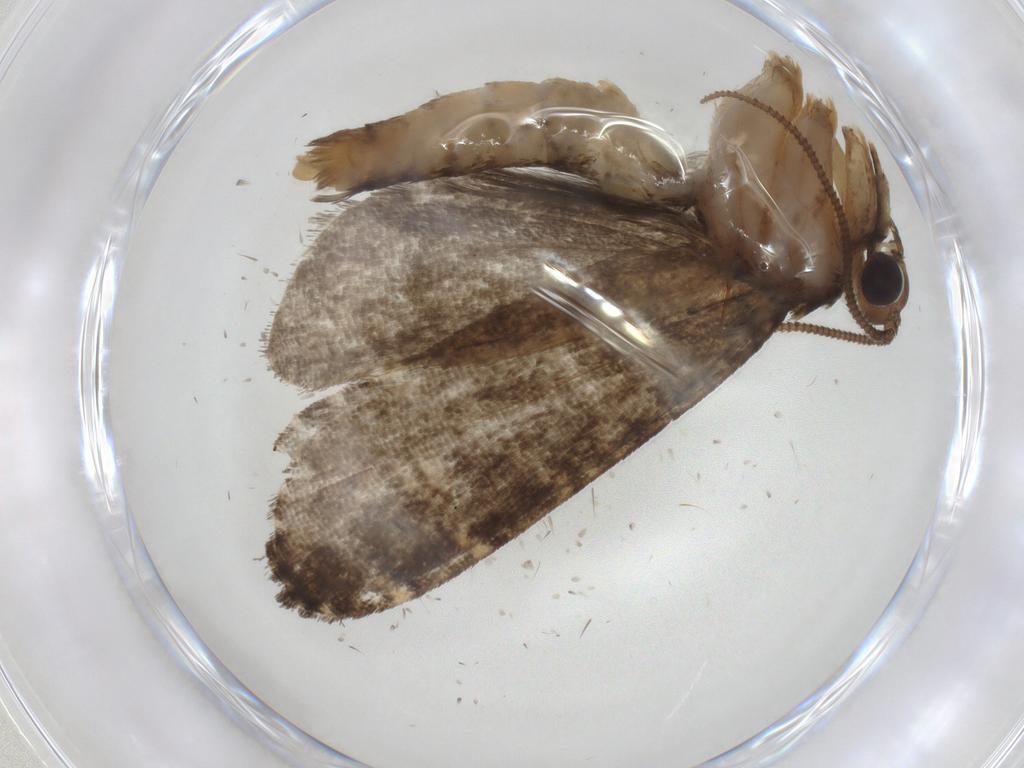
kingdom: Animalia
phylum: Arthropoda
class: Insecta
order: Lepidoptera
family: Tineidae
